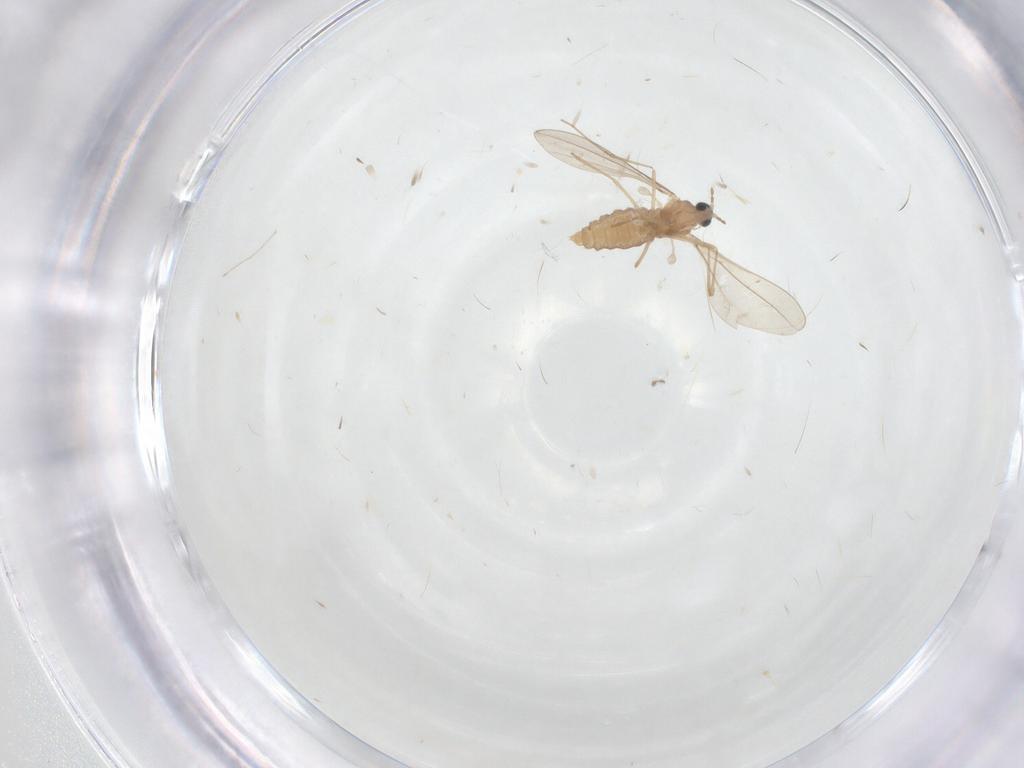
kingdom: Animalia
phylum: Arthropoda
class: Insecta
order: Diptera
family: Cecidomyiidae
